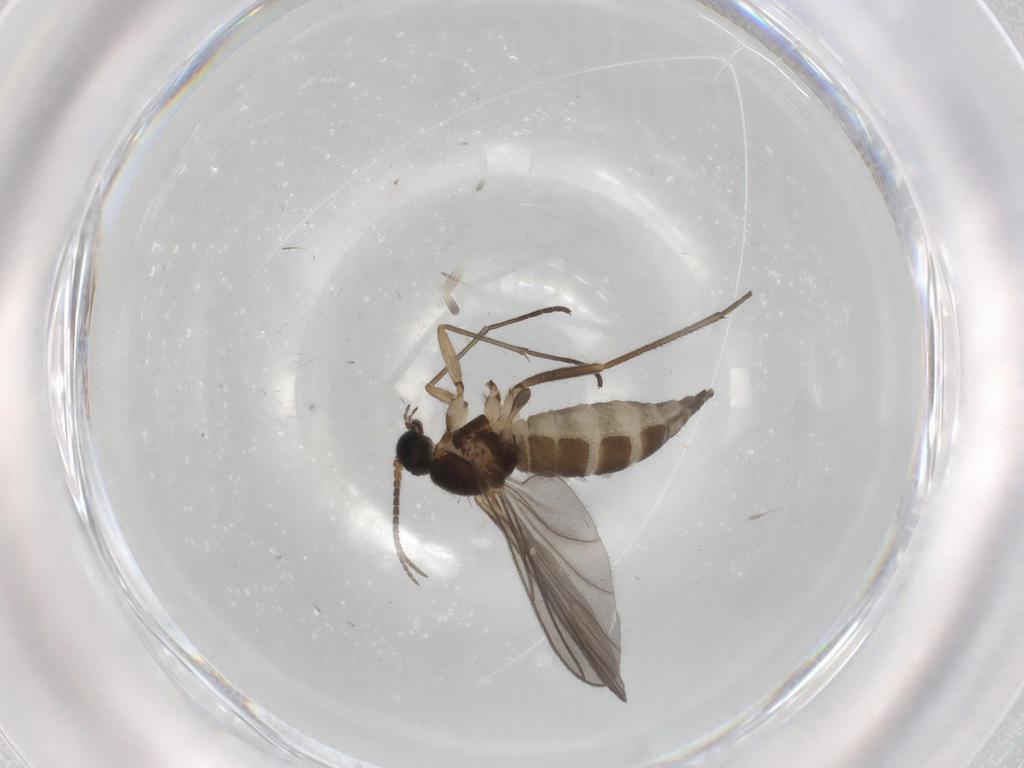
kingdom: Animalia
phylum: Arthropoda
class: Insecta
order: Diptera
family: Sciaridae
